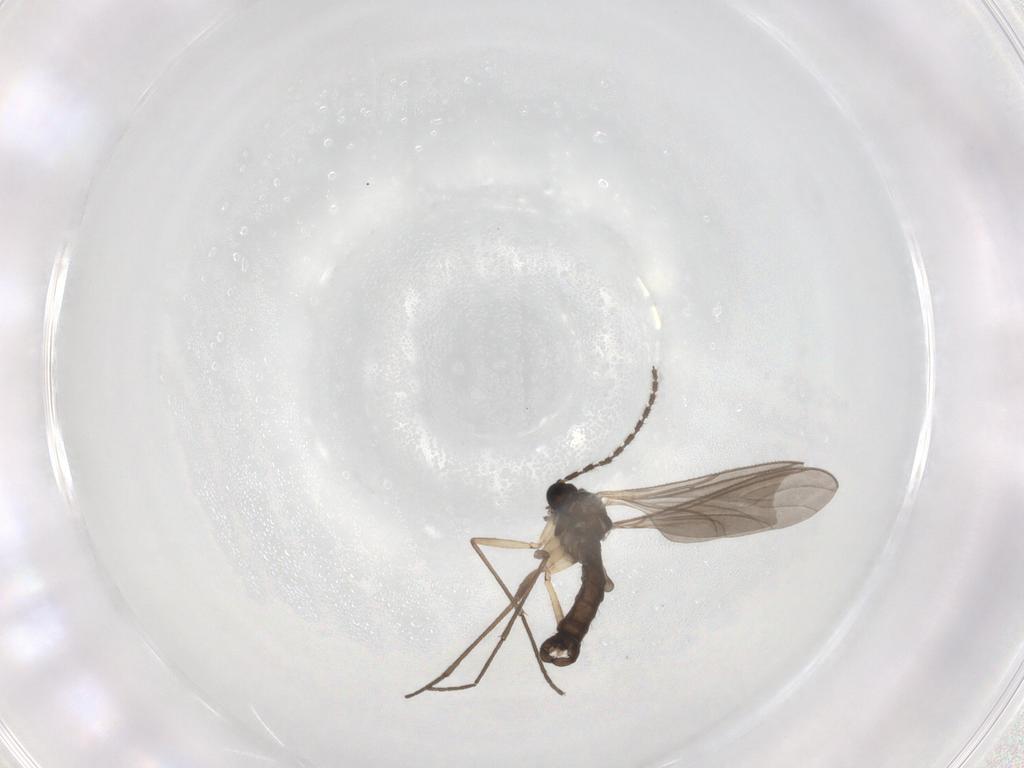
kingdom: Animalia
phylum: Arthropoda
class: Insecta
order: Diptera
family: Sciaridae
